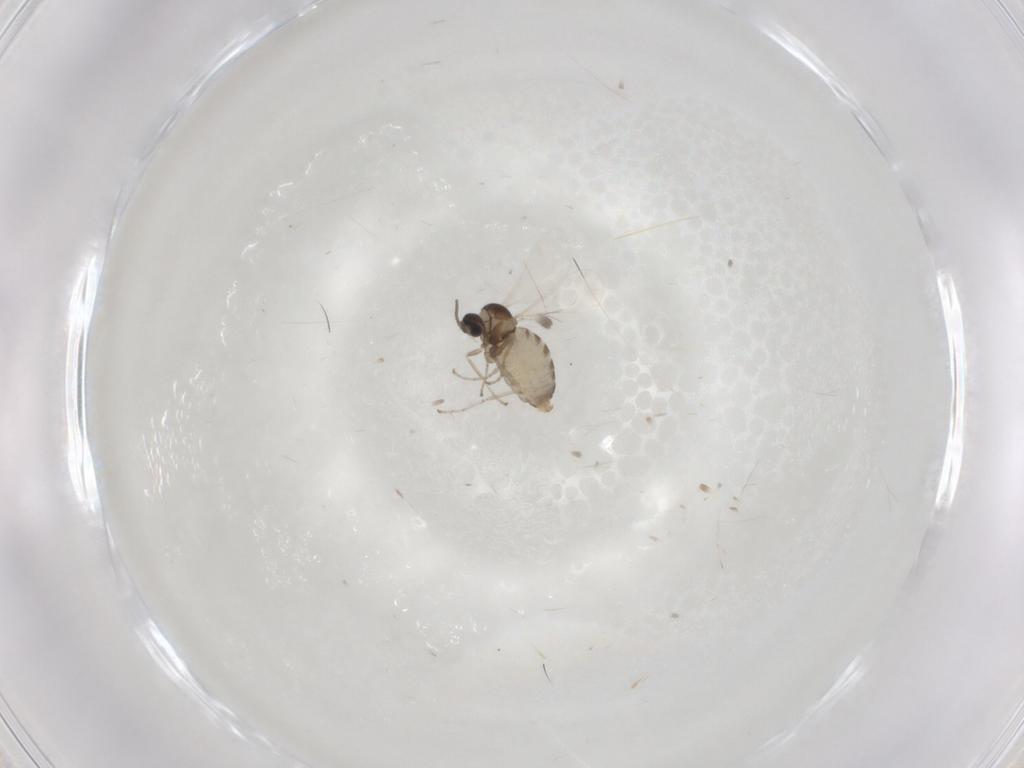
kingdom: Animalia
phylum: Arthropoda
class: Insecta
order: Diptera
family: Cecidomyiidae
